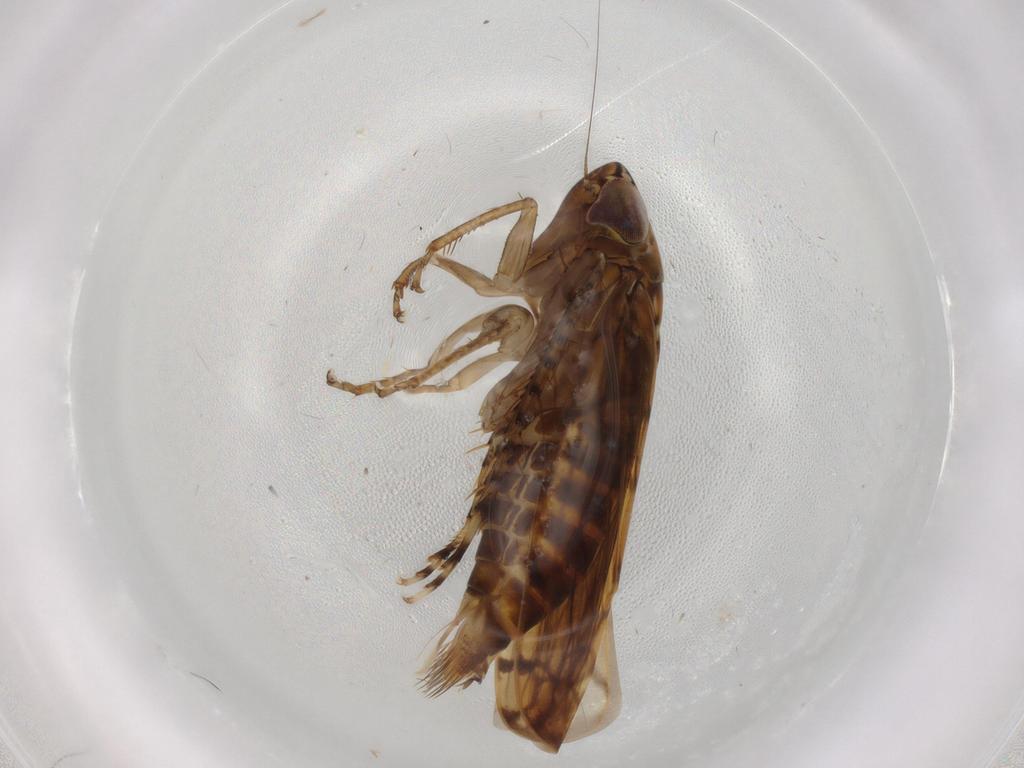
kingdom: Animalia
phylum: Arthropoda
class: Insecta
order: Hemiptera
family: Cicadellidae
